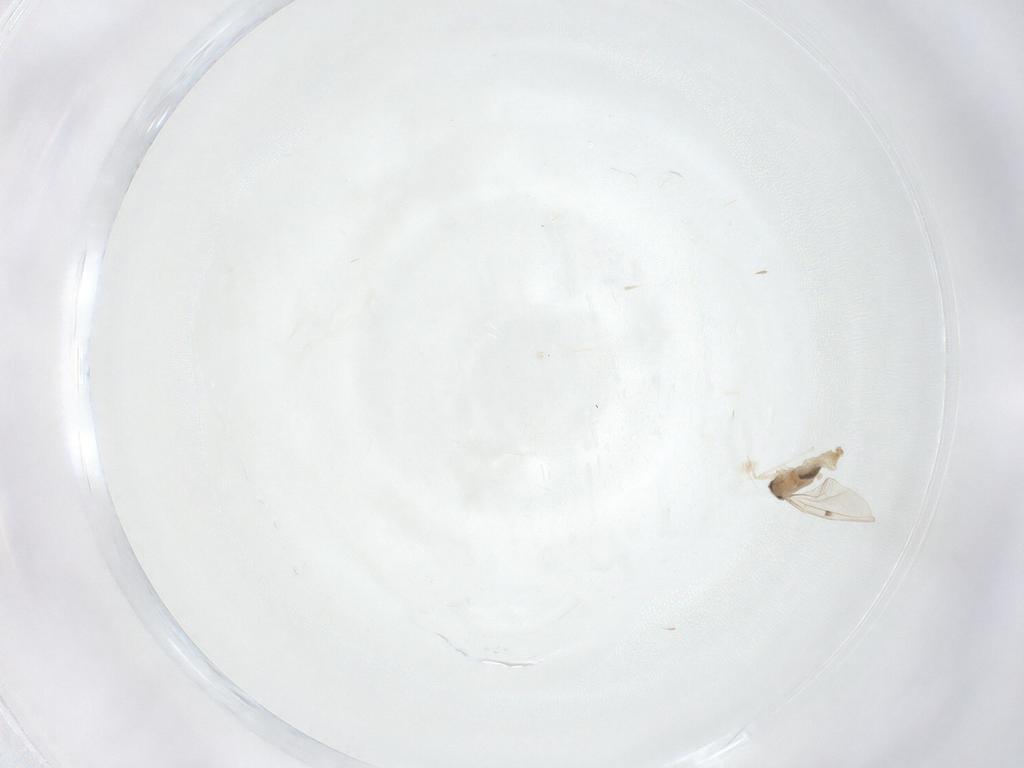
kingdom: Animalia
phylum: Arthropoda
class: Insecta
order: Diptera
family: Cecidomyiidae
